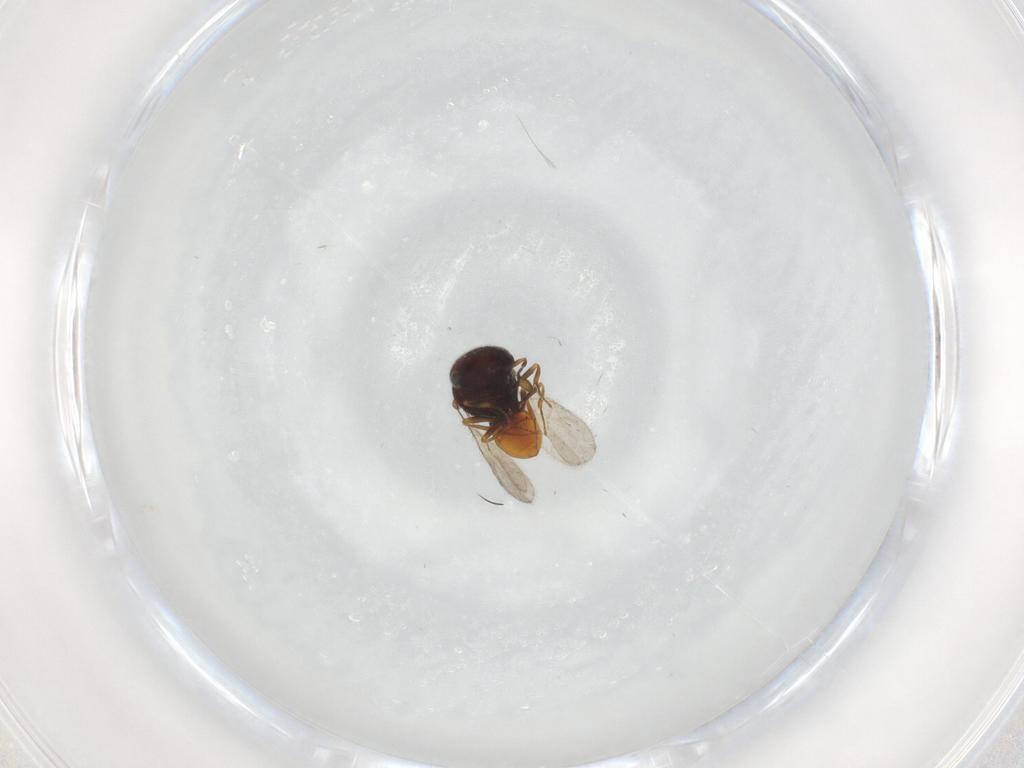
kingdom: Animalia
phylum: Arthropoda
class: Insecta
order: Hymenoptera
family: Scelionidae
